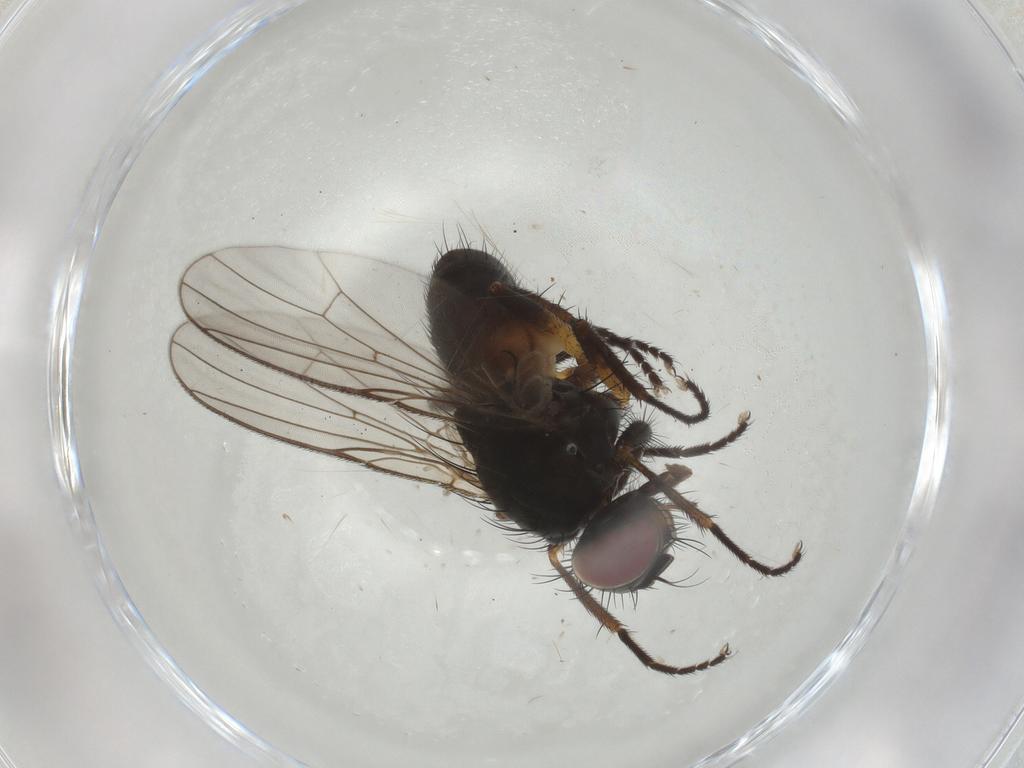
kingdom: Animalia
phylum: Arthropoda
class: Insecta
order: Diptera
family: Muscidae
